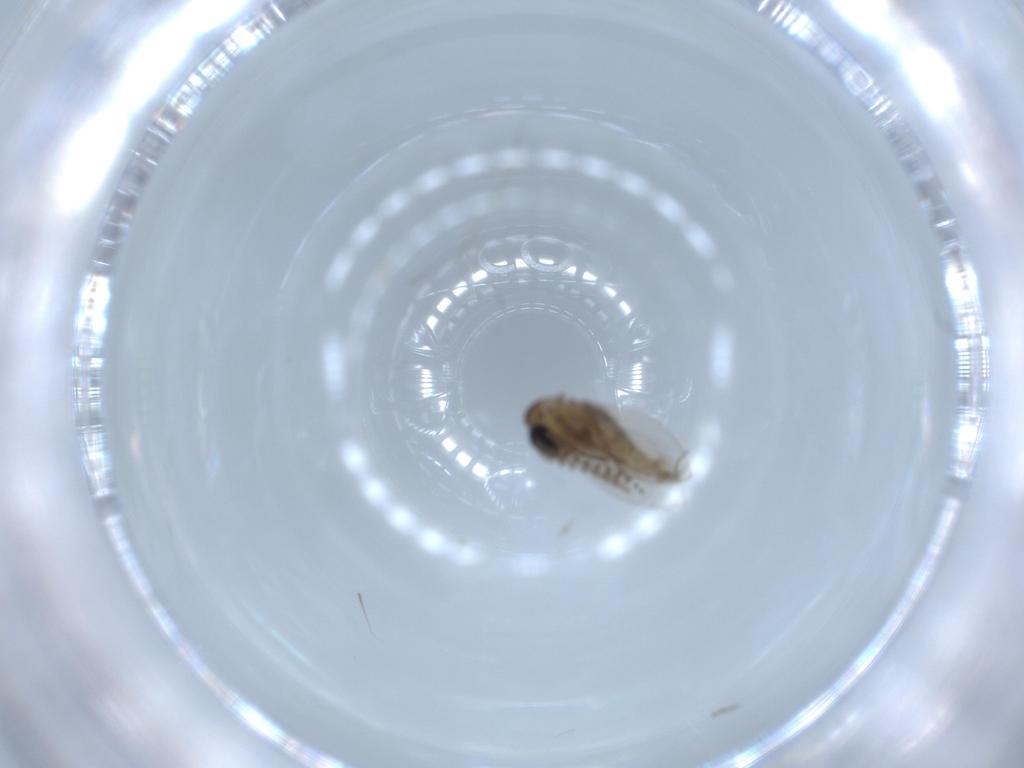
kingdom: Animalia
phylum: Arthropoda
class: Insecta
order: Diptera
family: Psychodidae
